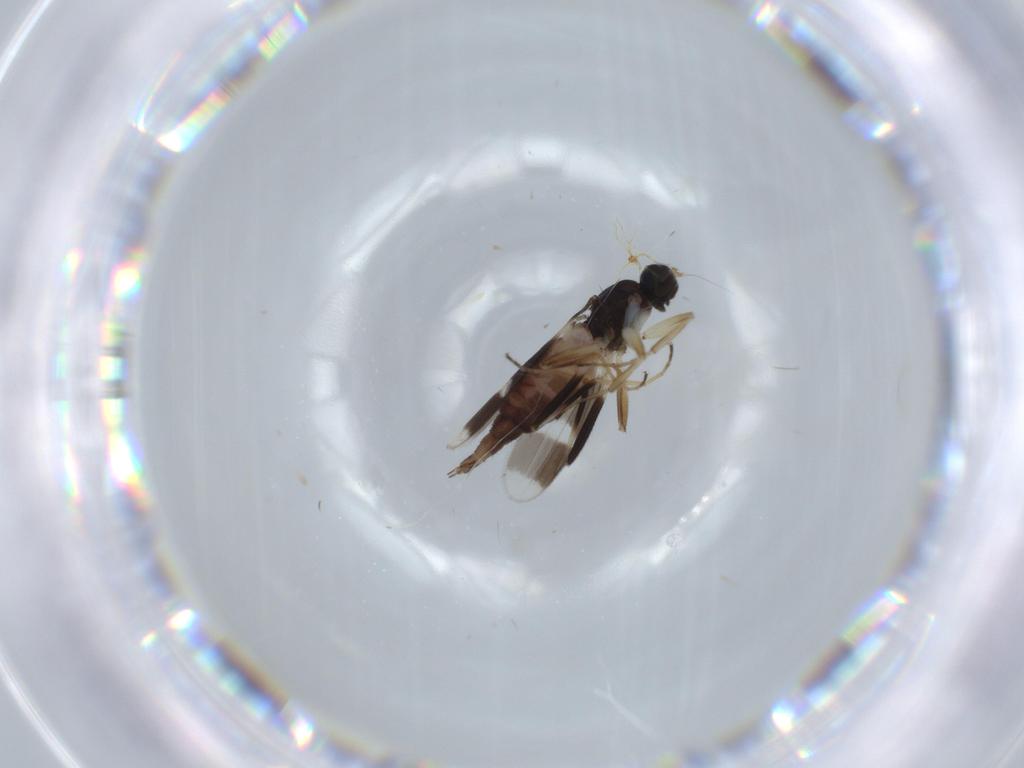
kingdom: Animalia
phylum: Arthropoda
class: Insecta
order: Diptera
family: Hybotidae
